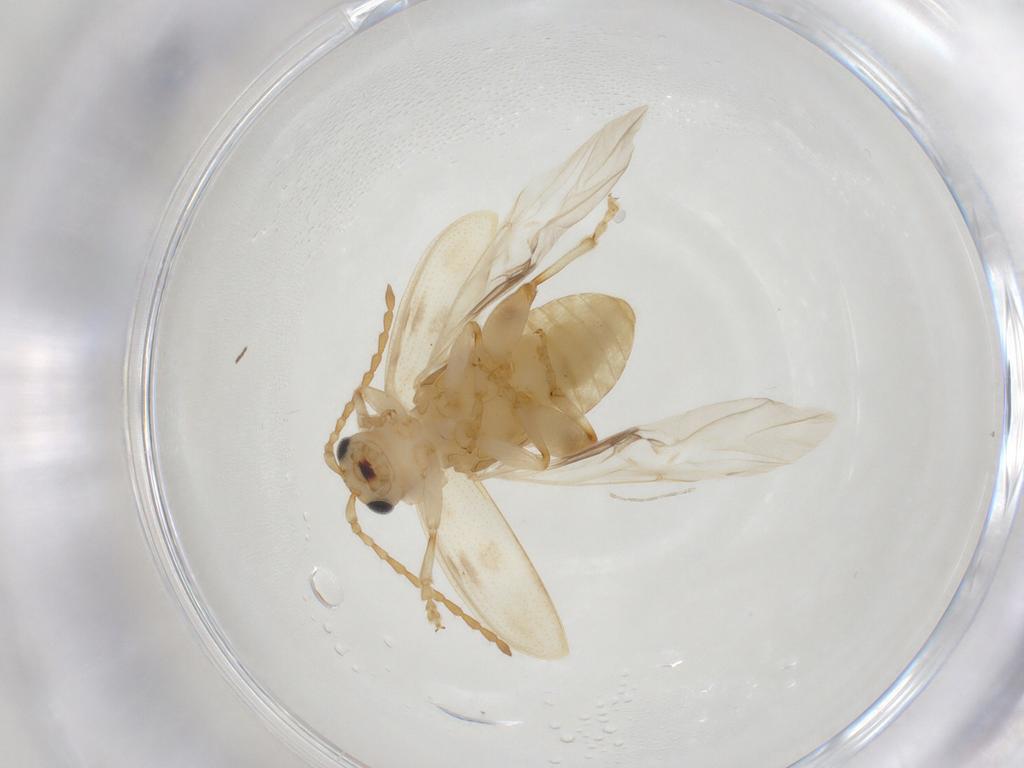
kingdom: Animalia
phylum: Arthropoda
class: Insecta
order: Coleoptera
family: Chrysomelidae
